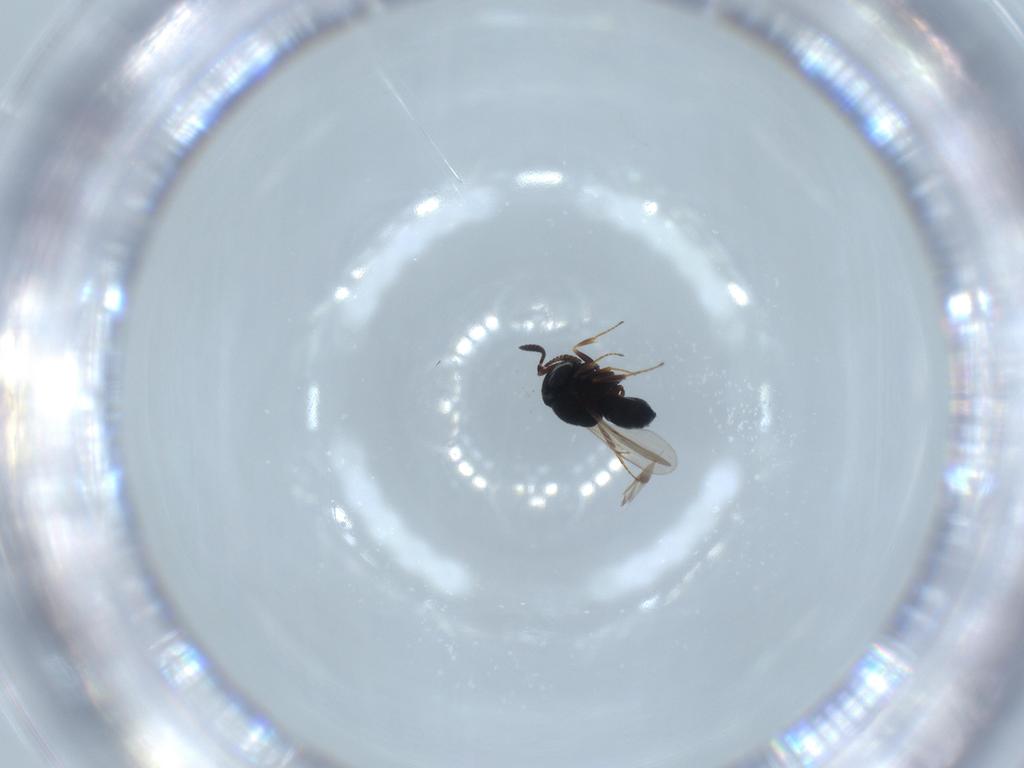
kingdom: Animalia
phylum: Arthropoda
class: Insecta
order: Hymenoptera
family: Scelionidae
